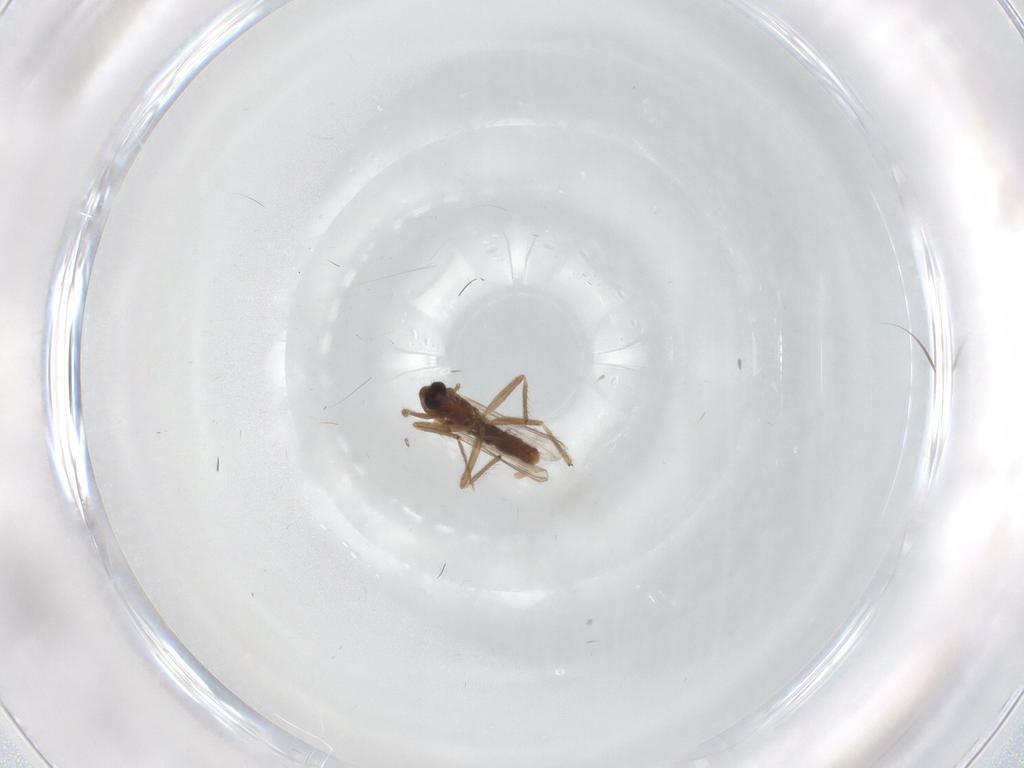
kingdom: Animalia
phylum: Arthropoda
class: Insecta
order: Diptera
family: Chironomidae
